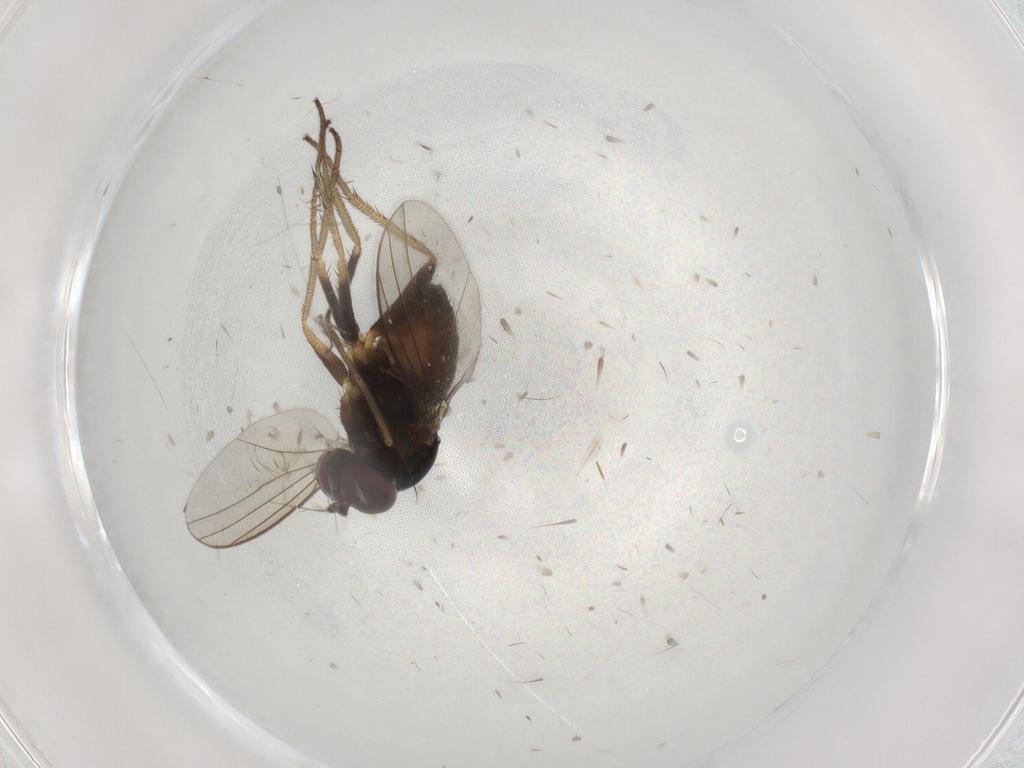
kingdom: Animalia
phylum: Arthropoda
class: Insecta
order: Diptera
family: Dolichopodidae
